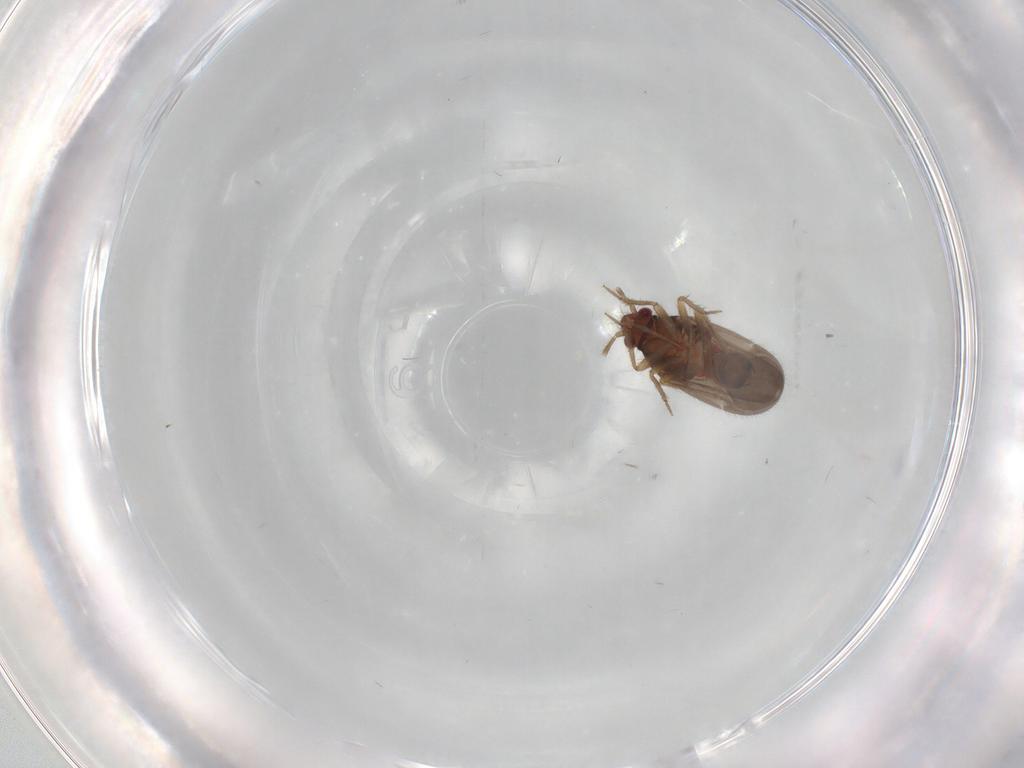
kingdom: Animalia
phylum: Arthropoda
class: Insecta
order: Hemiptera
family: Ceratocombidae
